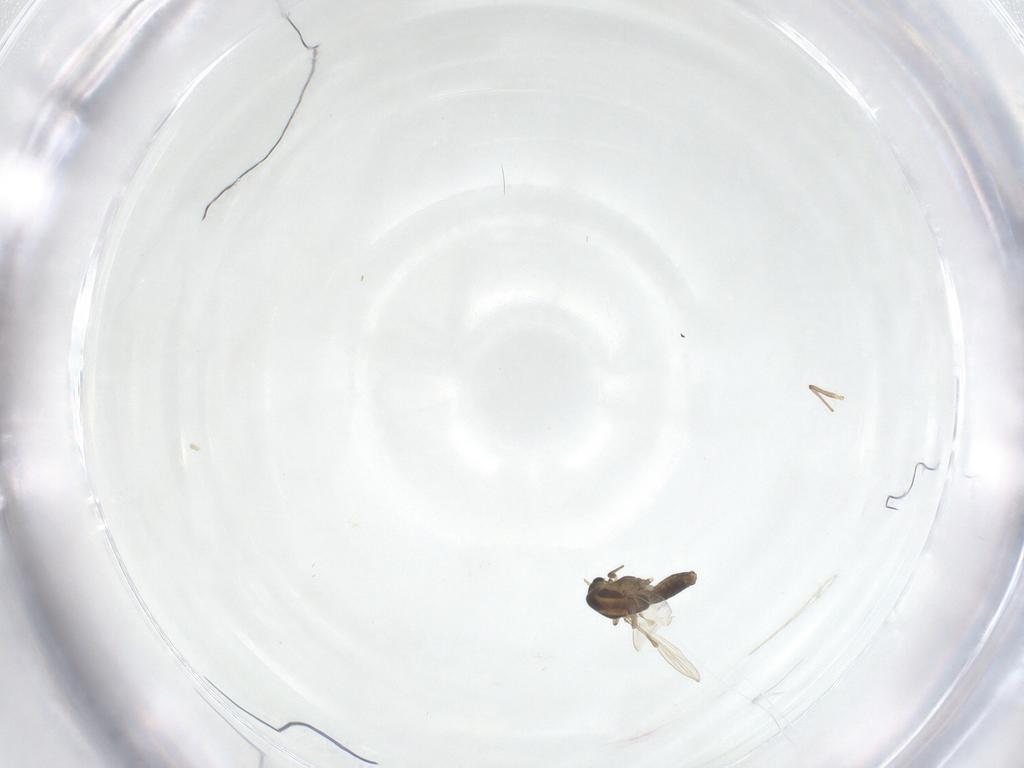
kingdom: Animalia
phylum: Arthropoda
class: Insecta
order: Diptera
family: Chironomidae
